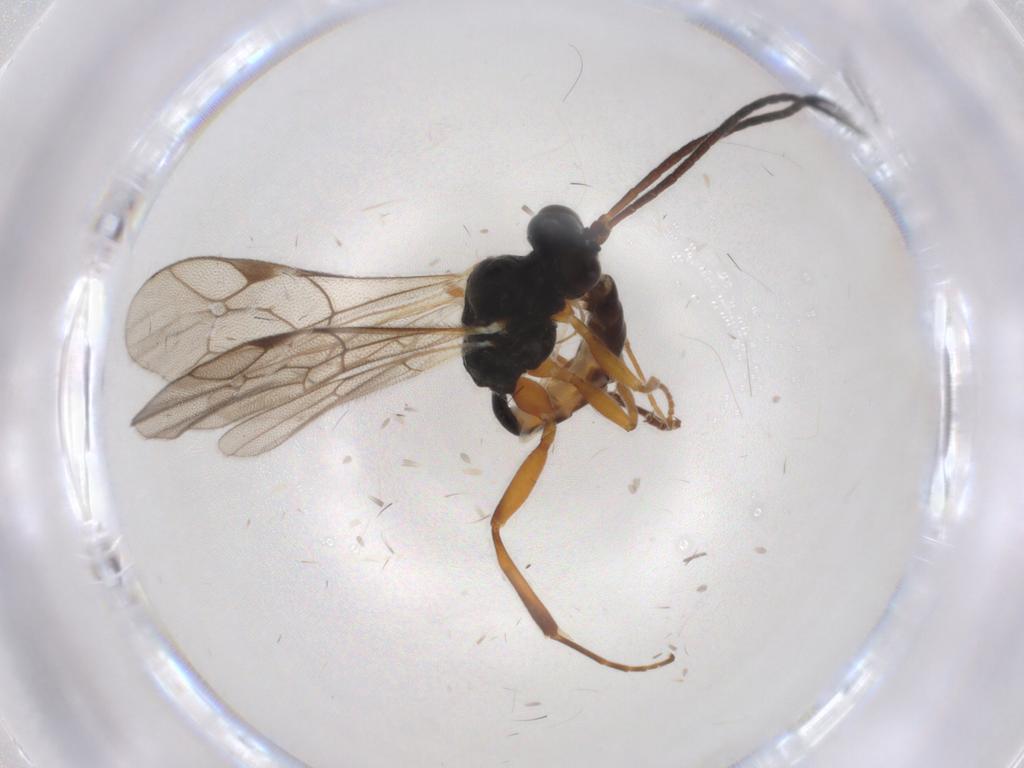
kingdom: Animalia
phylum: Arthropoda
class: Insecta
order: Hymenoptera
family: Ichneumonidae
